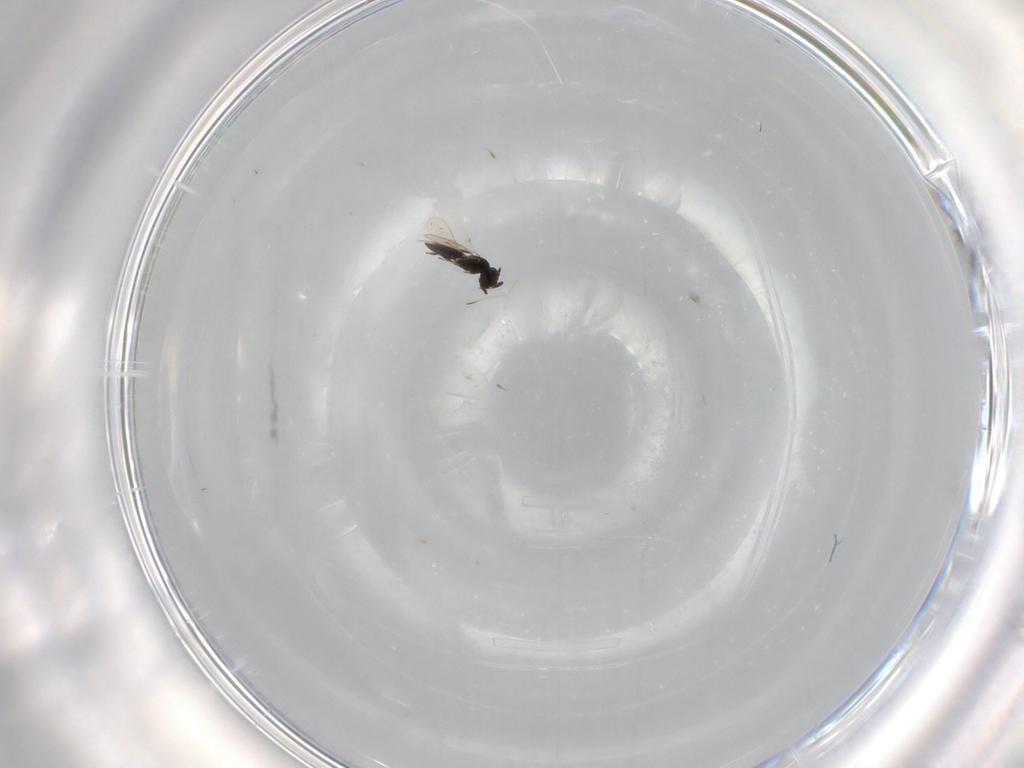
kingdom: Animalia
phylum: Arthropoda
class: Insecta
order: Hymenoptera
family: Scelionidae
